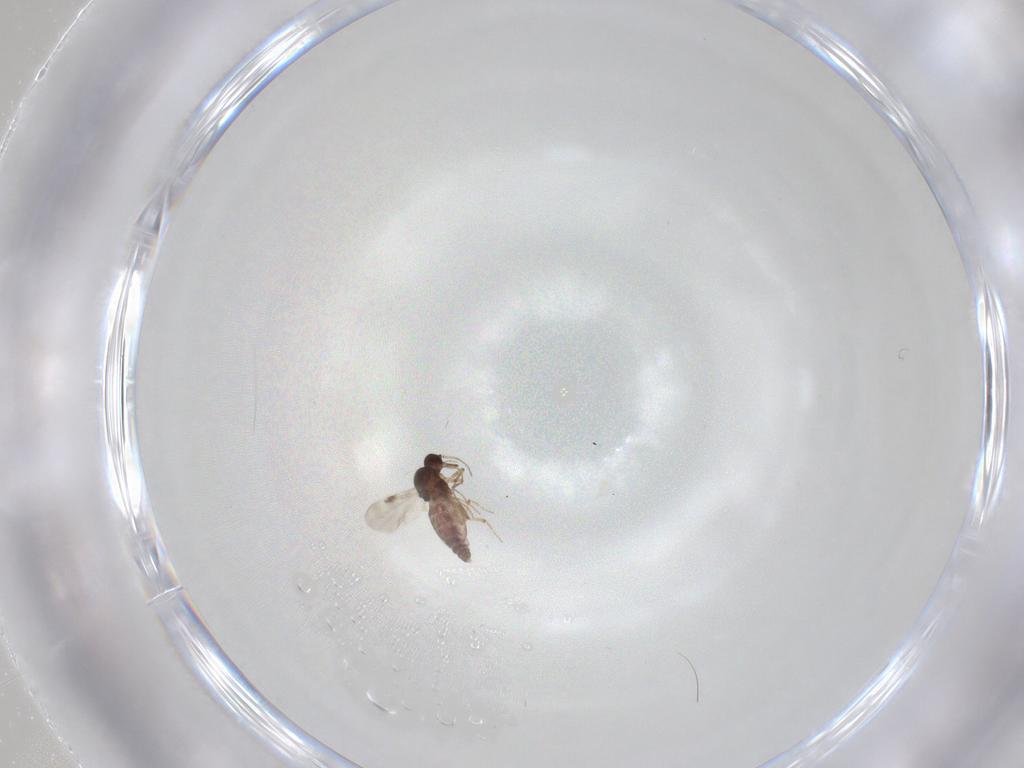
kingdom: Animalia
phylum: Arthropoda
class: Insecta
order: Diptera
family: Psychodidae
